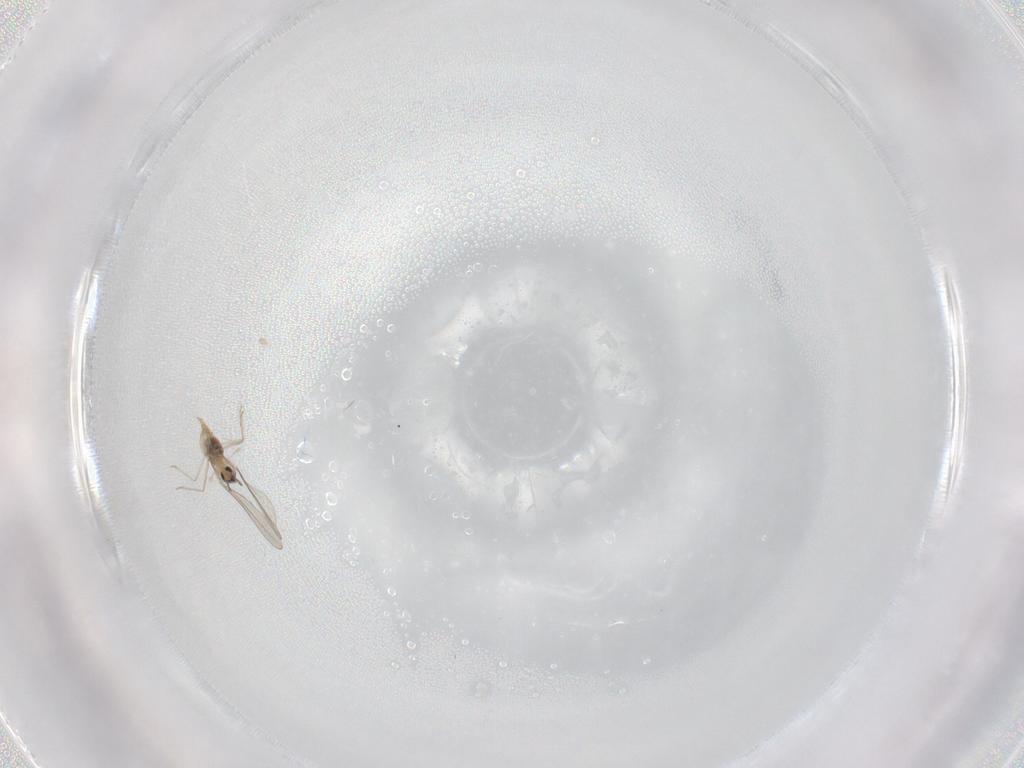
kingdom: Animalia
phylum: Arthropoda
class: Insecta
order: Diptera
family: Cecidomyiidae
